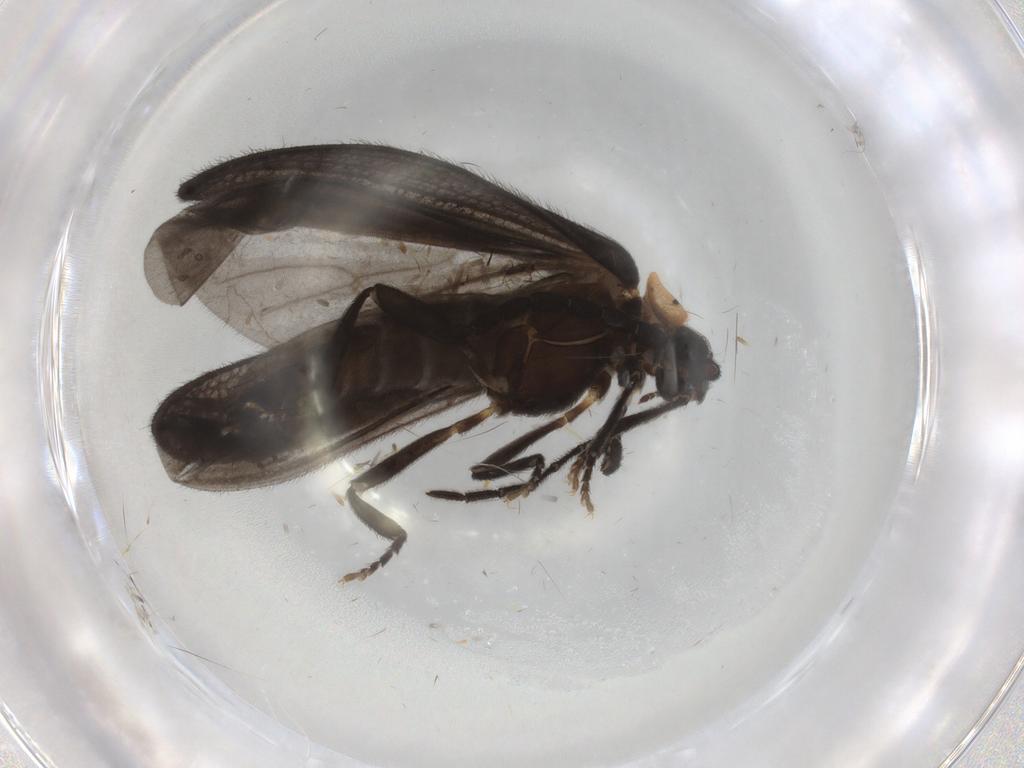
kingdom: Animalia
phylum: Arthropoda
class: Insecta
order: Coleoptera
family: Lycidae
